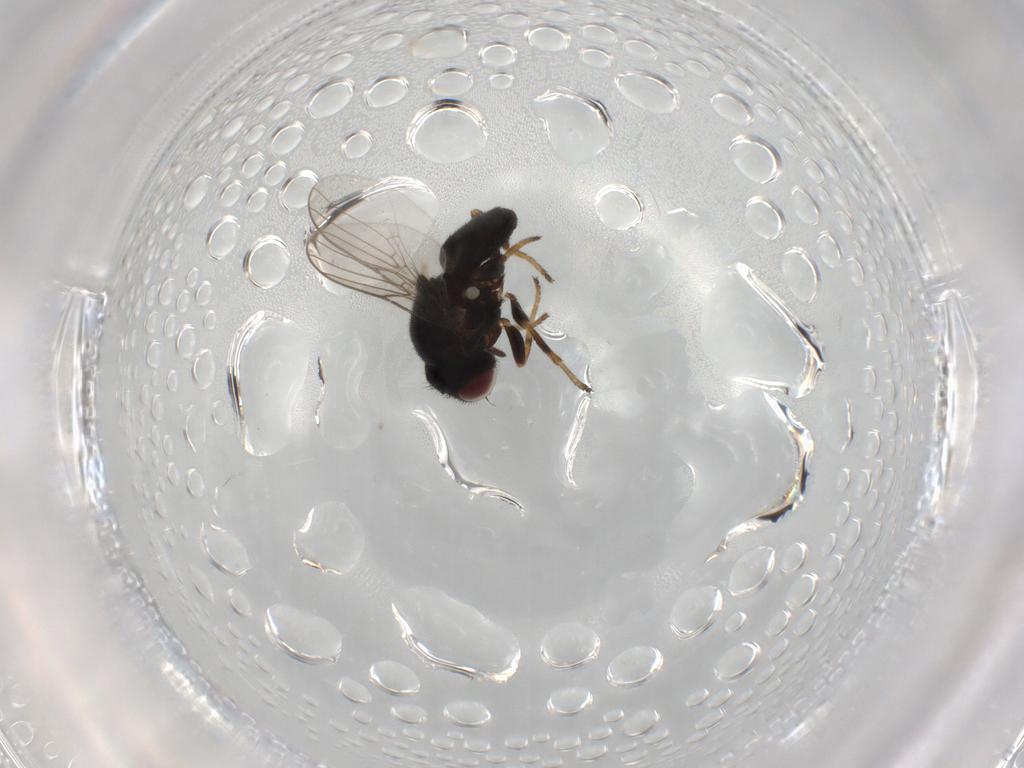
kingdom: Animalia
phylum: Arthropoda
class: Insecta
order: Diptera
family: Chloropidae
